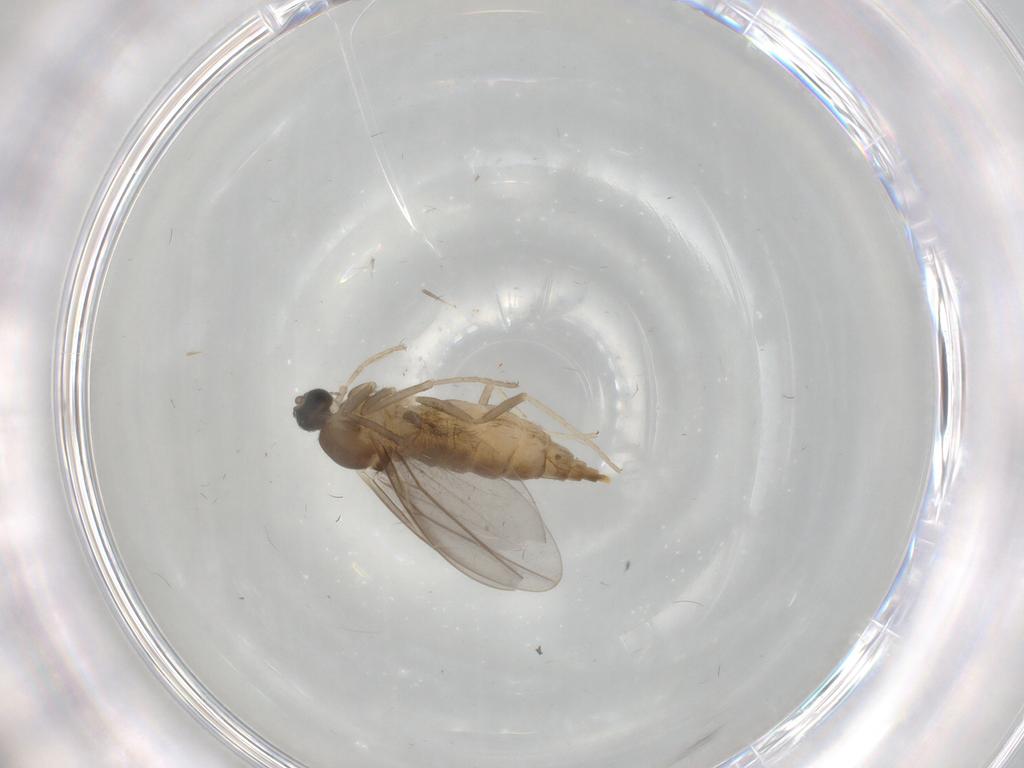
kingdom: Animalia
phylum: Arthropoda
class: Insecta
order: Diptera
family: Cecidomyiidae
